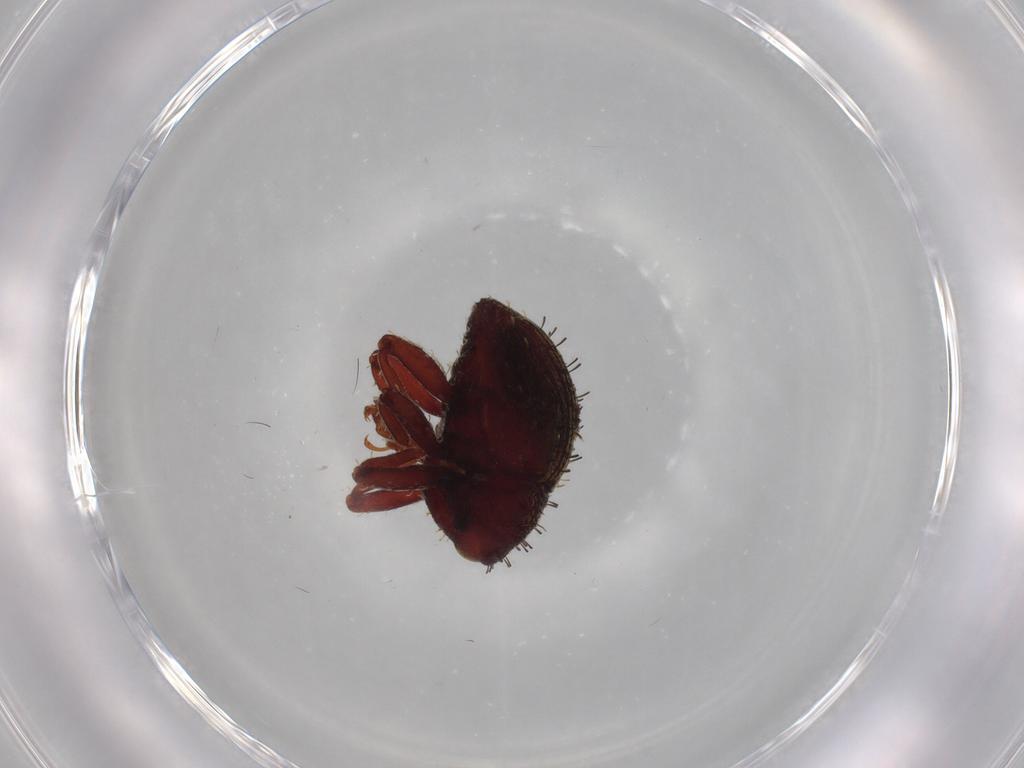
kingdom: Animalia
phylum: Arthropoda
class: Insecta
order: Coleoptera
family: Curculionidae
